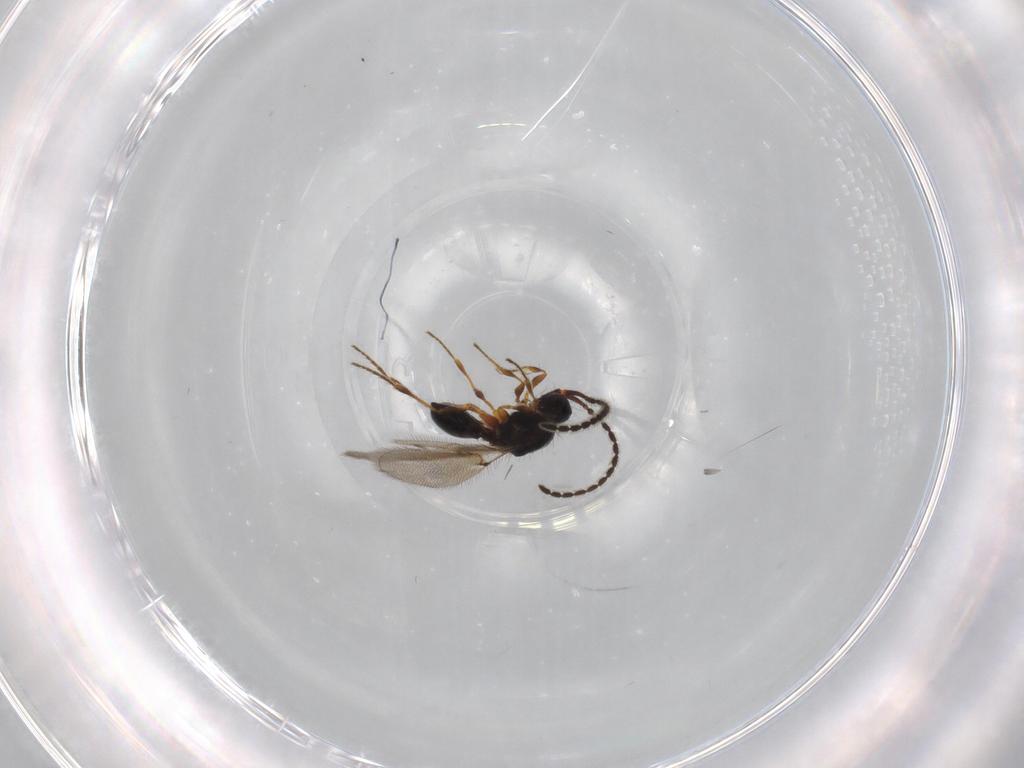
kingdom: Animalia
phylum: Arthropoda
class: Insecta
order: Hymenoptera
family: Diapriidae
